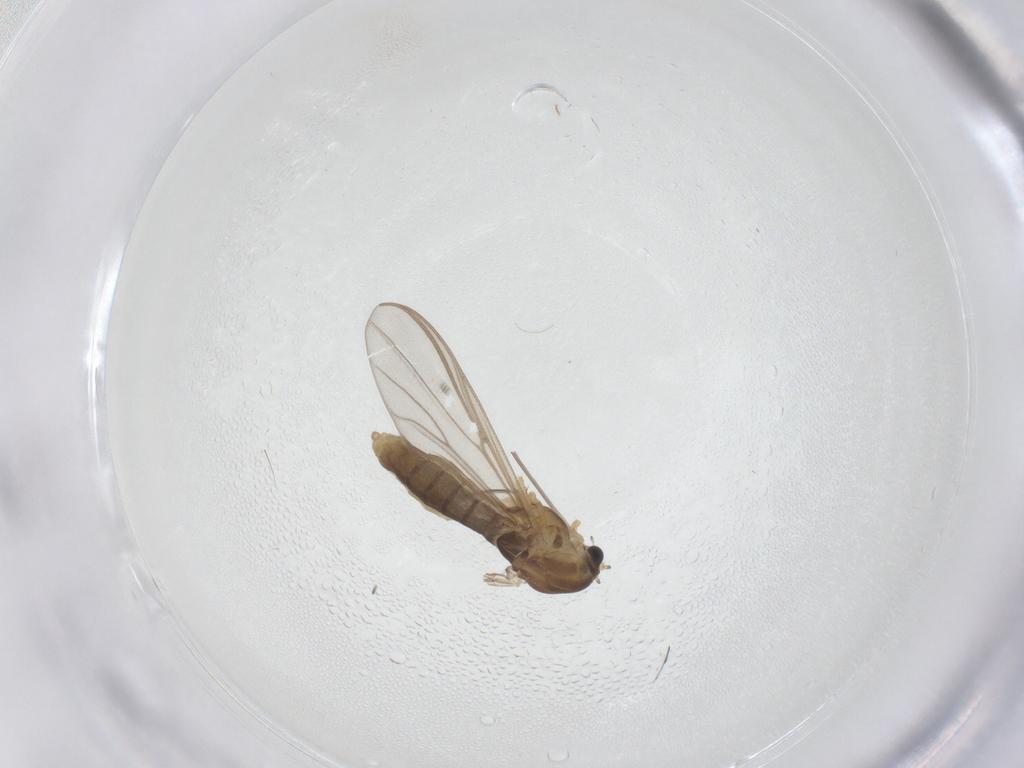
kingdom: Animalia
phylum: Arthropoda
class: Insecta
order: Diptera
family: Chironomidae
